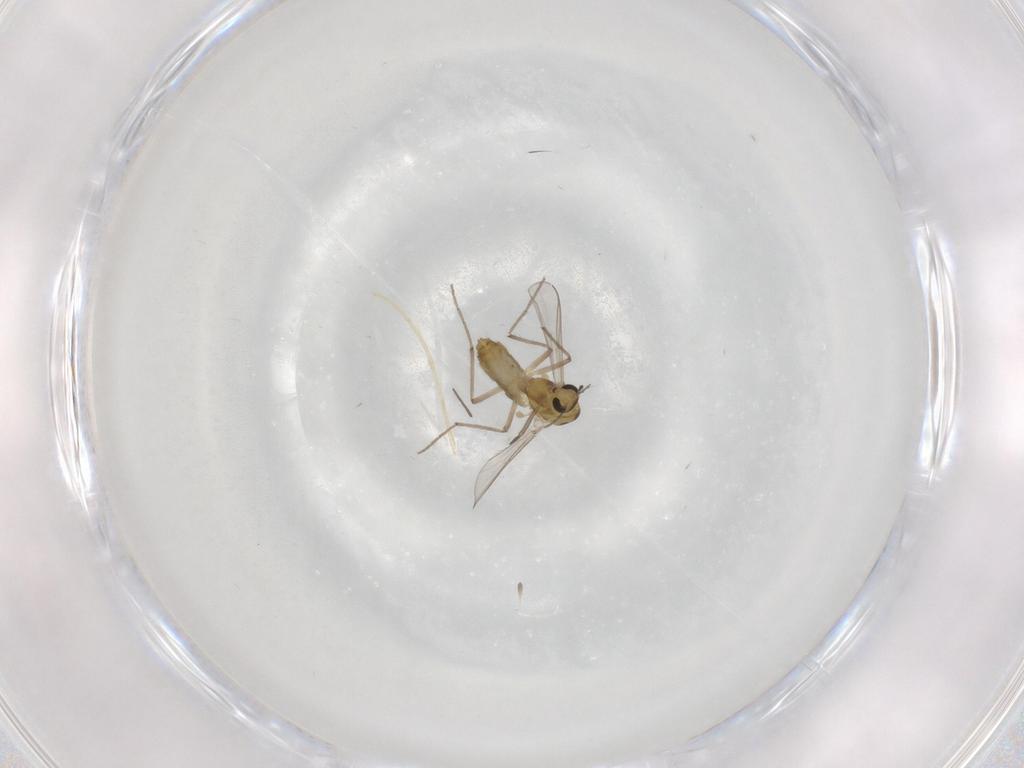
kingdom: Animalia
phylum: Arthropoda
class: Insecta
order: Diptera
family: Chironomidae
